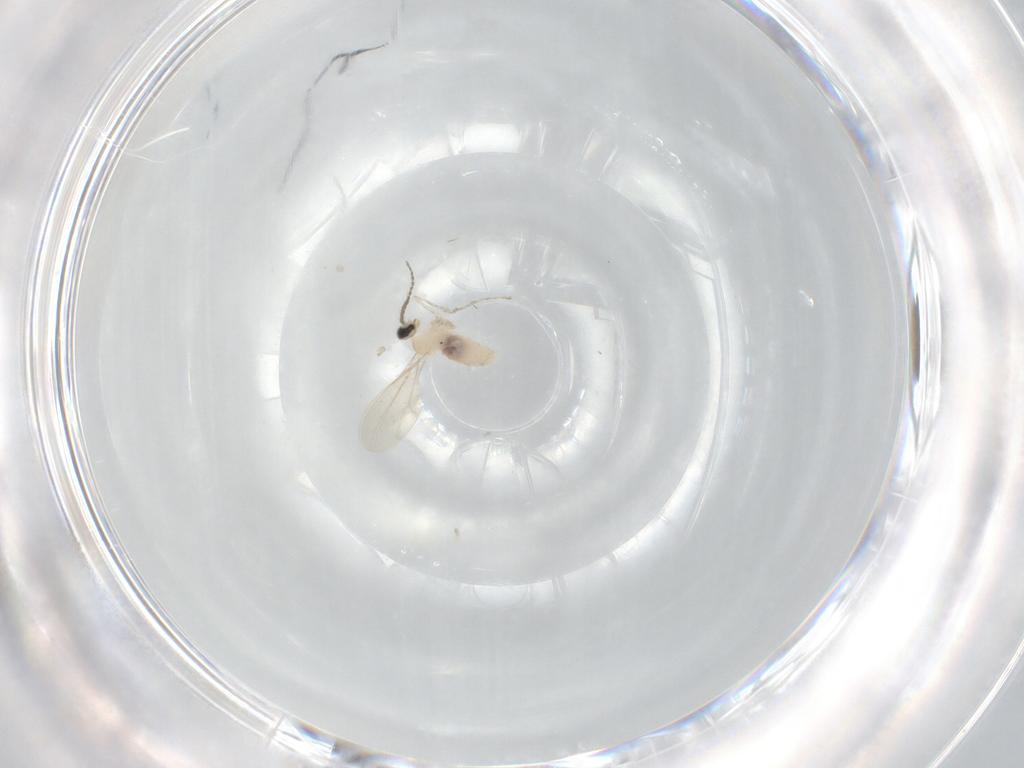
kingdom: Animalia
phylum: Arthropoda
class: Insecta
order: Diptera
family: Cecidomyiidae
